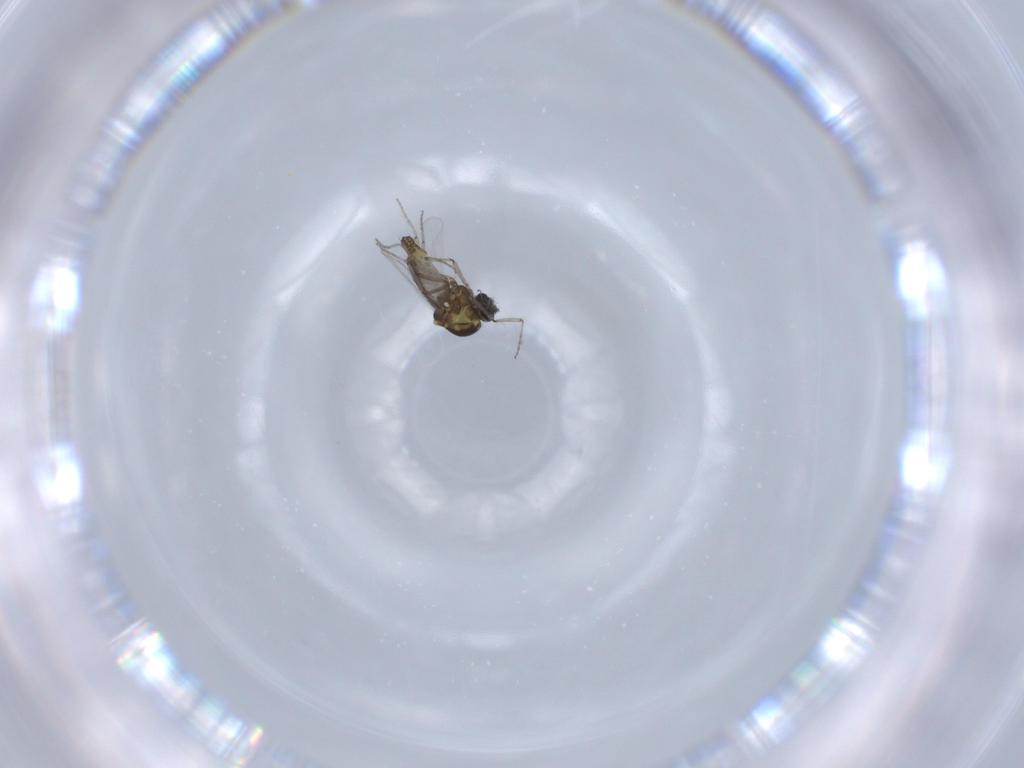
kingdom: Animalia
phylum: Arthropoda
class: Insecta
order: Diptera
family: Ceratopogonidae
